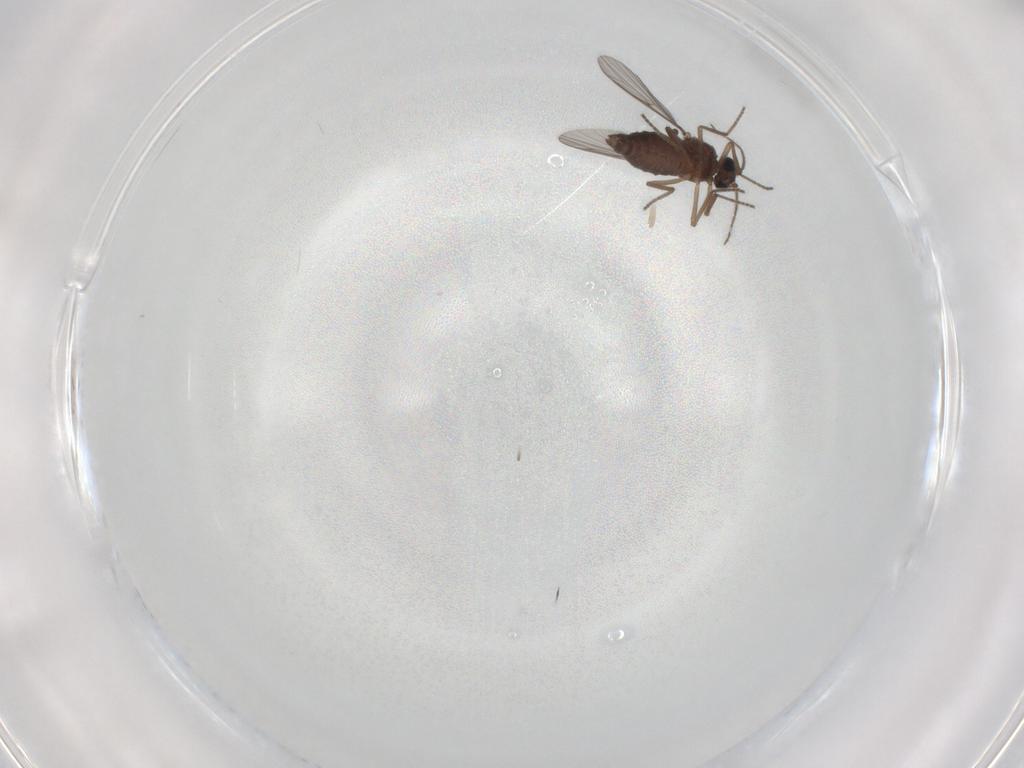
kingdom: Animalia
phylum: Arthropoda
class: Insecta
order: Diptera
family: Ceratopogonidae
